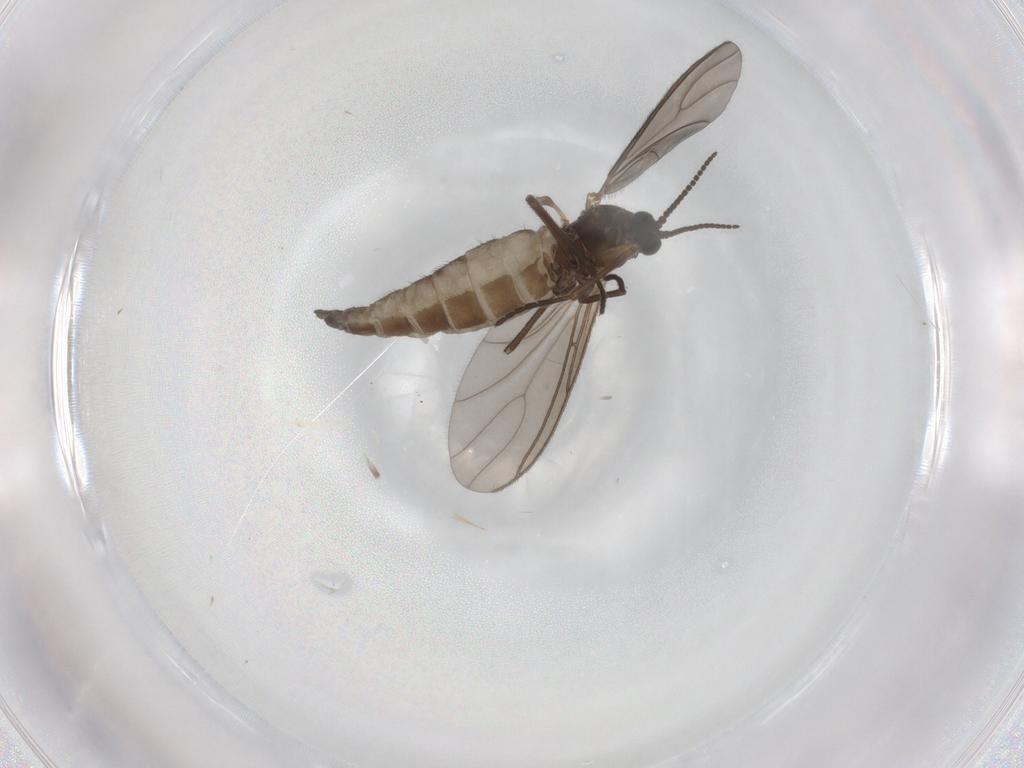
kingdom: Animalia
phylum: Arthropoda
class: Insecta
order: Diptera
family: Sciaridae
